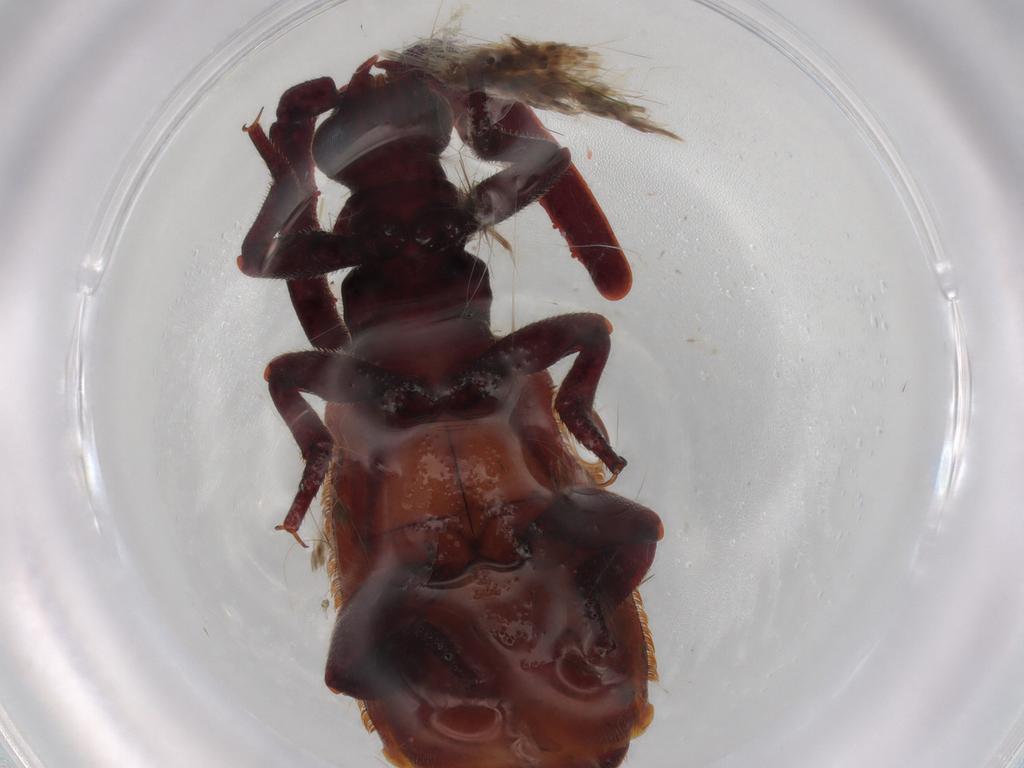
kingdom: Animalia
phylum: Arthropoda
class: Insecta
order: Coleoptera
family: Carabidae
